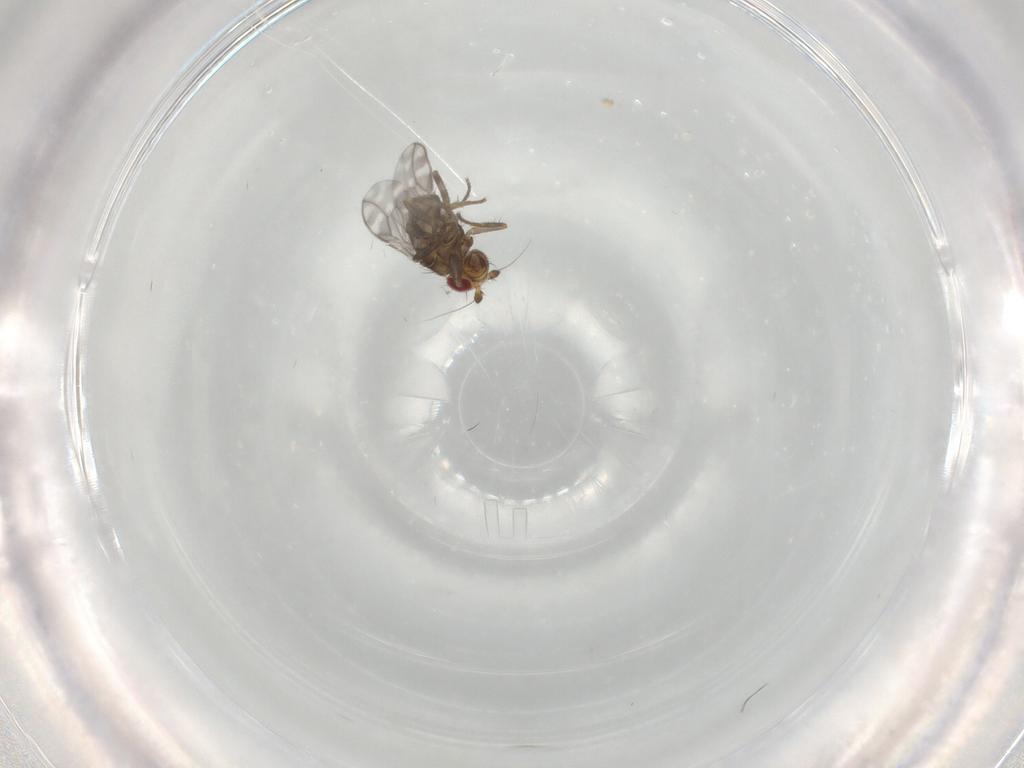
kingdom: Animalia
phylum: Arthropoda
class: Insecta
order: Diptera
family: Sphaeroceridae
